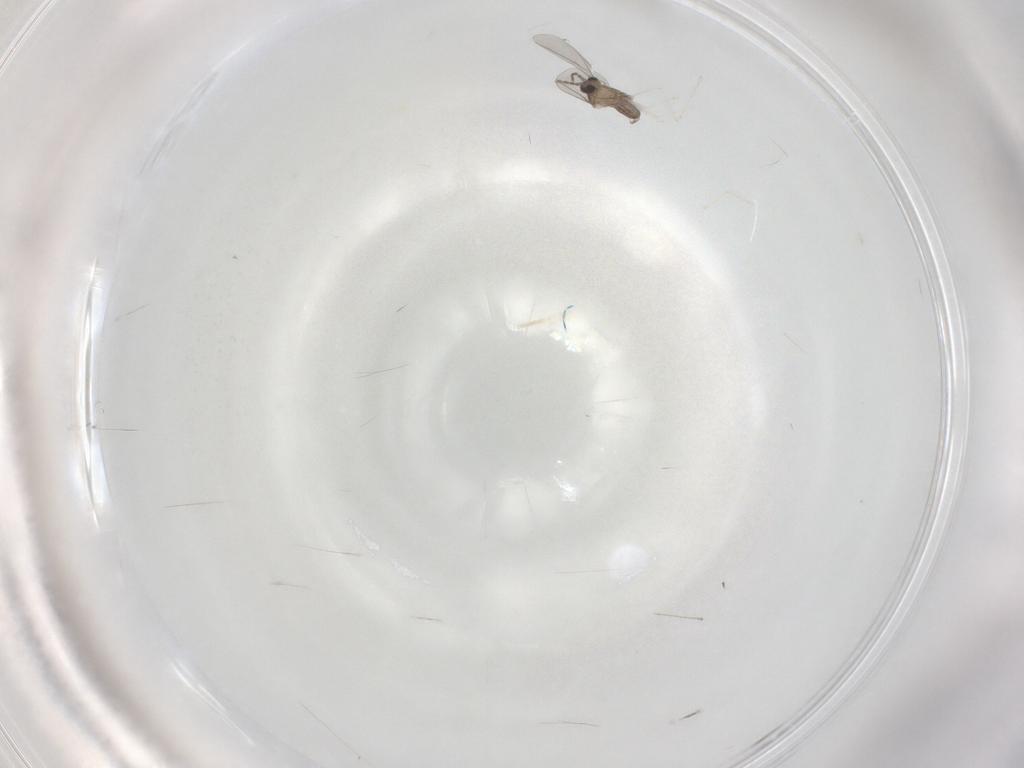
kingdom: Animalia
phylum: Arthropoda
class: Insecta
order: Diptera
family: Cecidomyiidae
